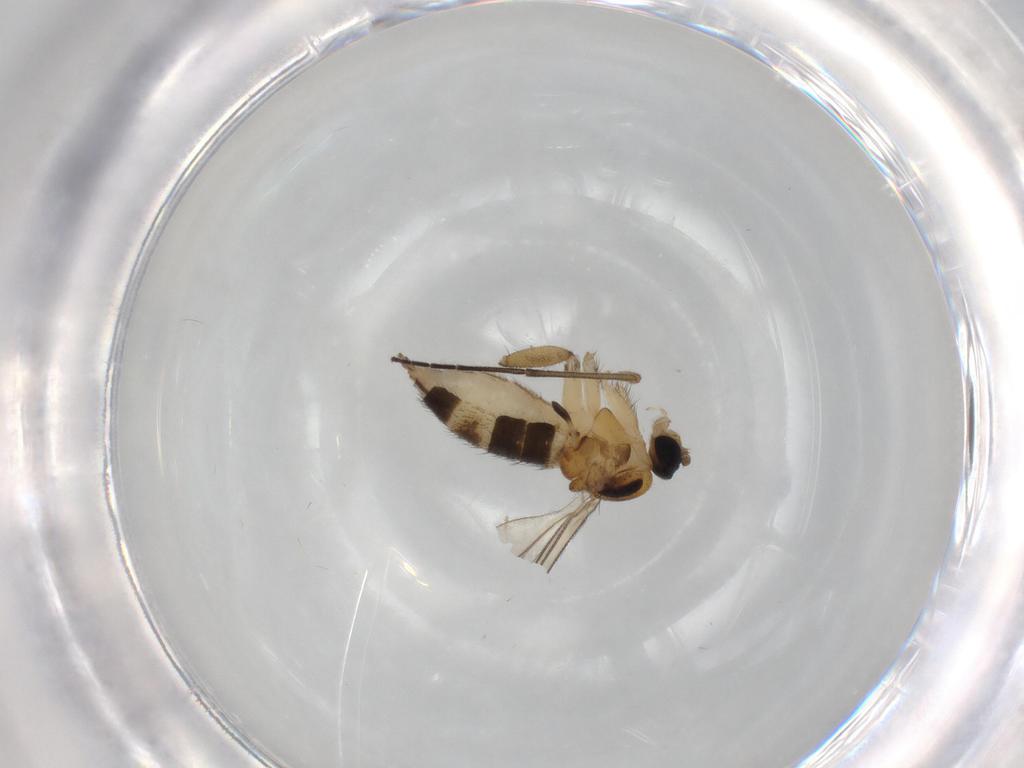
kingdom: Animalia
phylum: Arthropoda
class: Insecta
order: Diptera
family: Sciaridae
